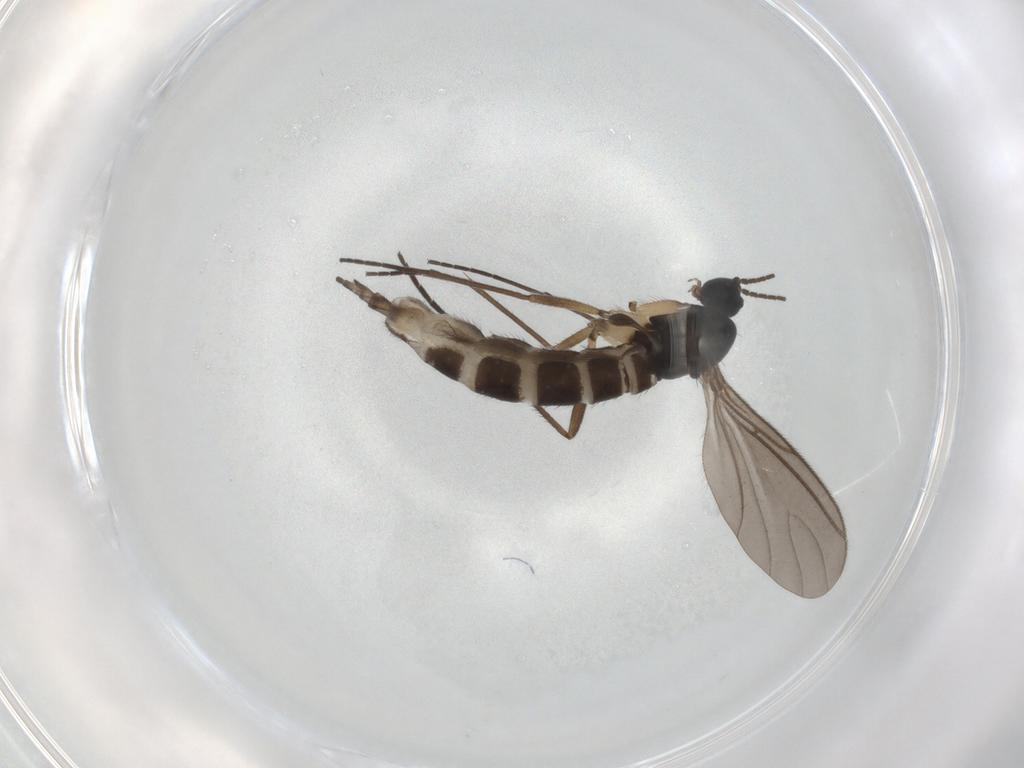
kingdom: Animalia
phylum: Arthropoda
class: Insecta
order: Diptera
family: Sciaridae
